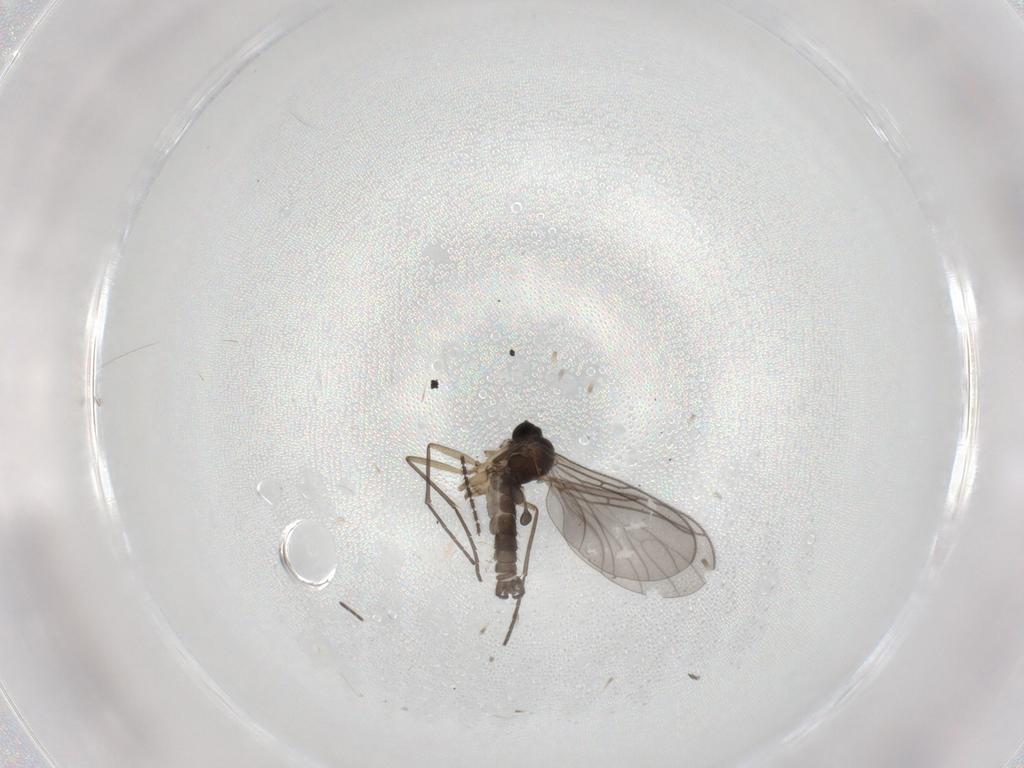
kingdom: Animalia
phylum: Arthropoda
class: Insecta
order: Diptera
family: Sciaridae
